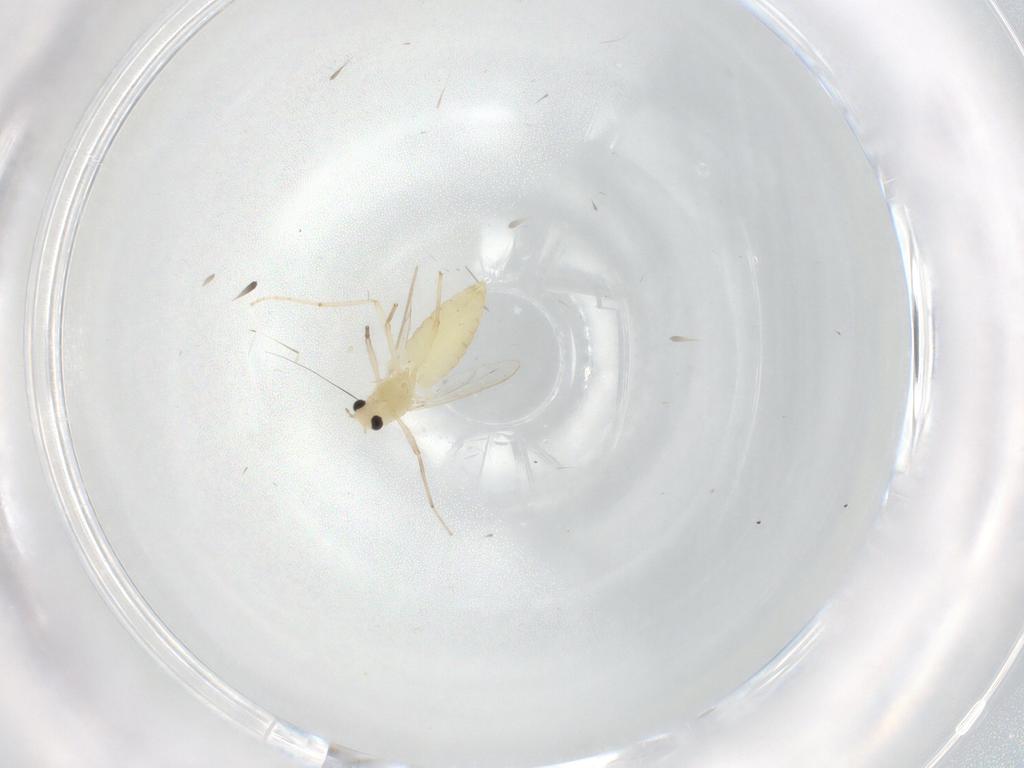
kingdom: Animalia
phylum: Arthropoda
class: Insecta
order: Diptera
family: Chironomidae
